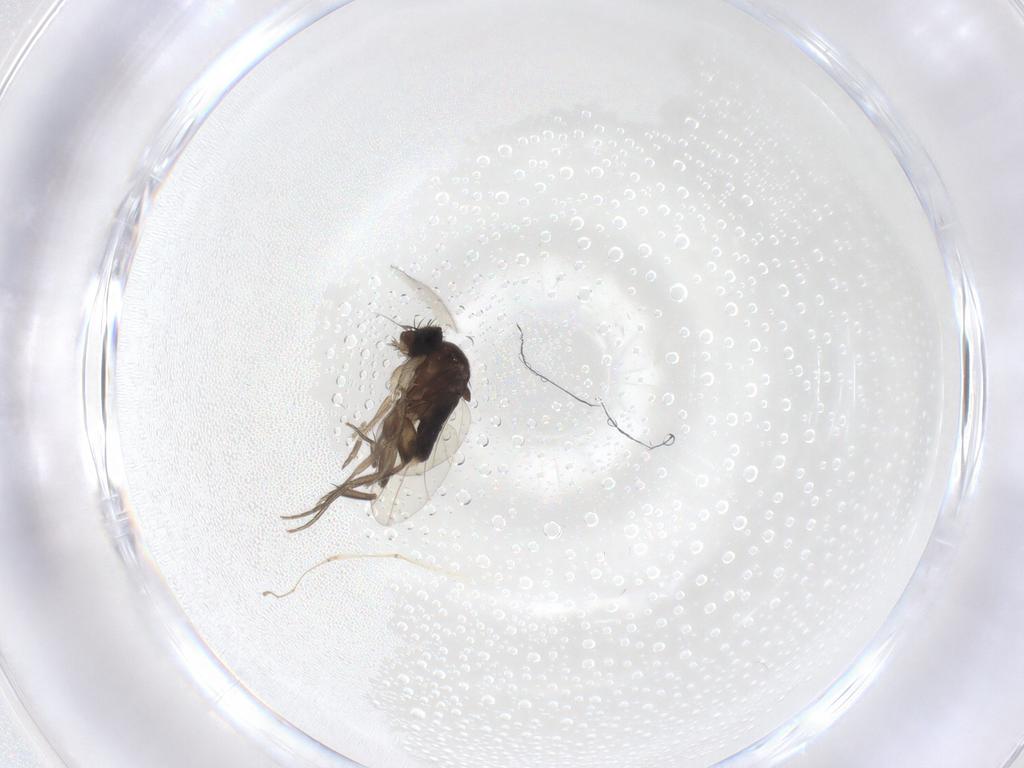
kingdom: Animalia
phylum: Arthropoda
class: Insecta
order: Diptera
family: Phoridae
